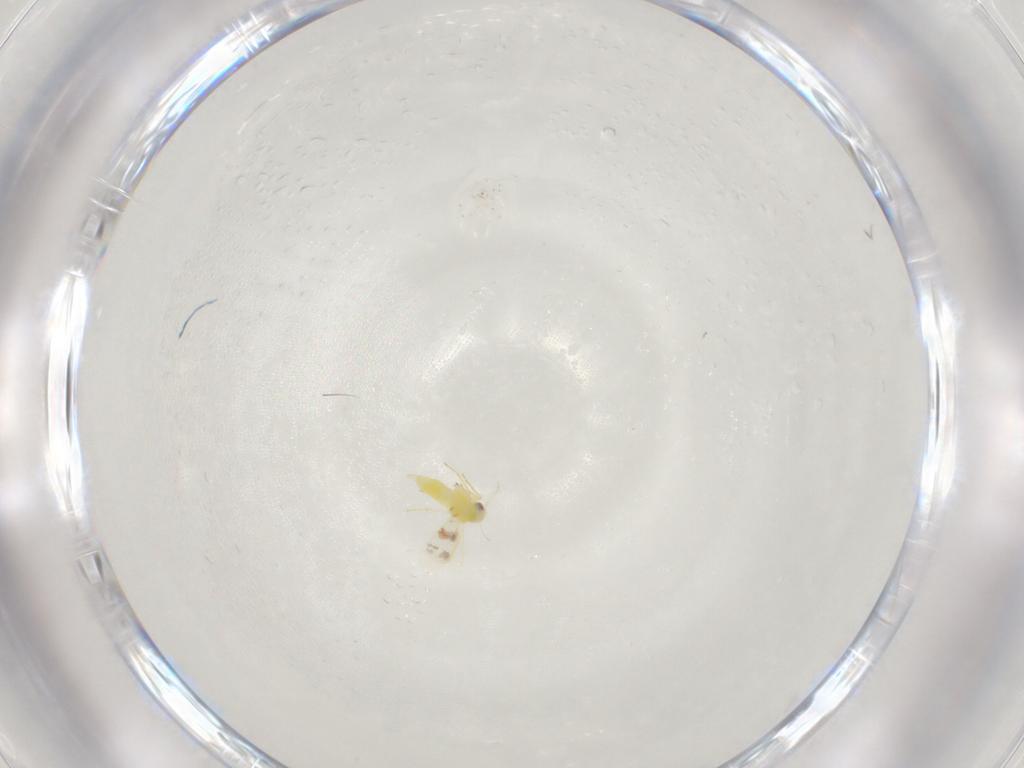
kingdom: Animalia
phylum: Arthropoda
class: Insecta
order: Hemiptera
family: Aleyrodidae
